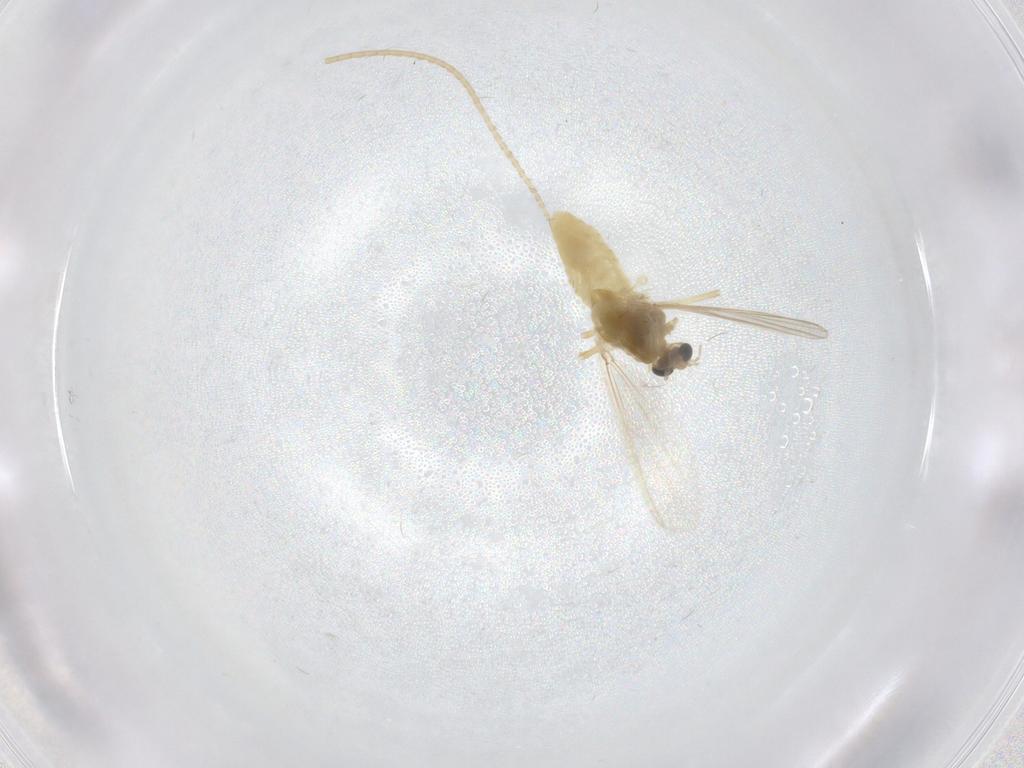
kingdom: Animalia
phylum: Arthropoda
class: Insecta
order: Diptera
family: Chironomidae
